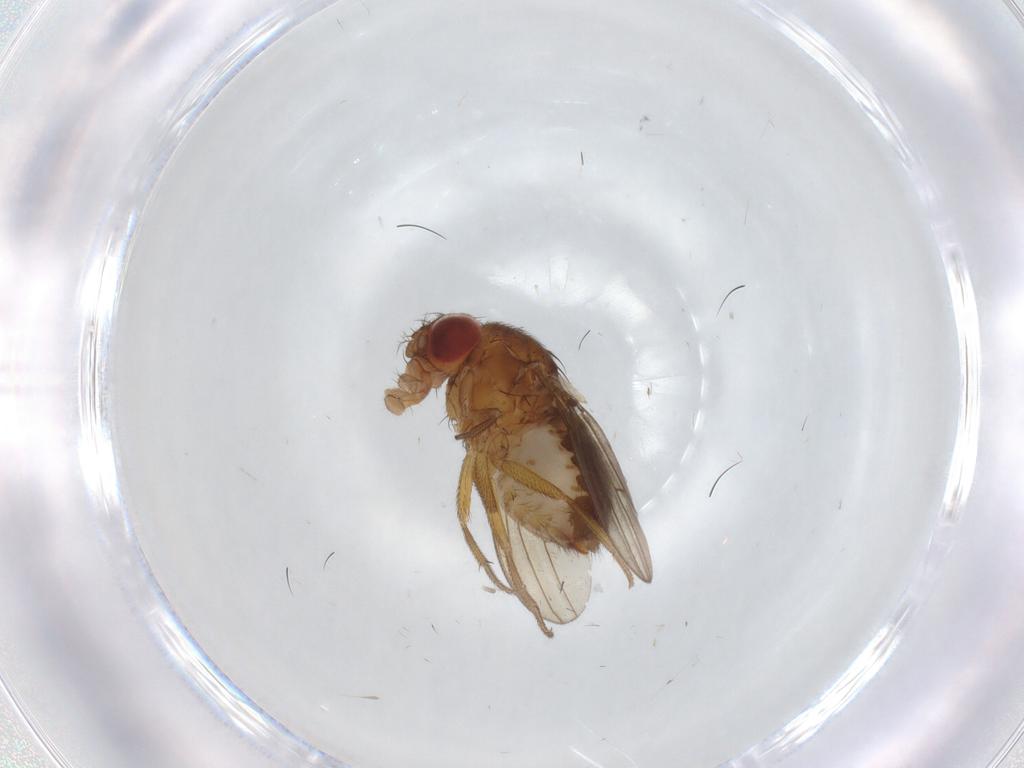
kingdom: Animalia
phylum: Arthropoda
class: Insecta
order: Diptera
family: Drosophilidae
